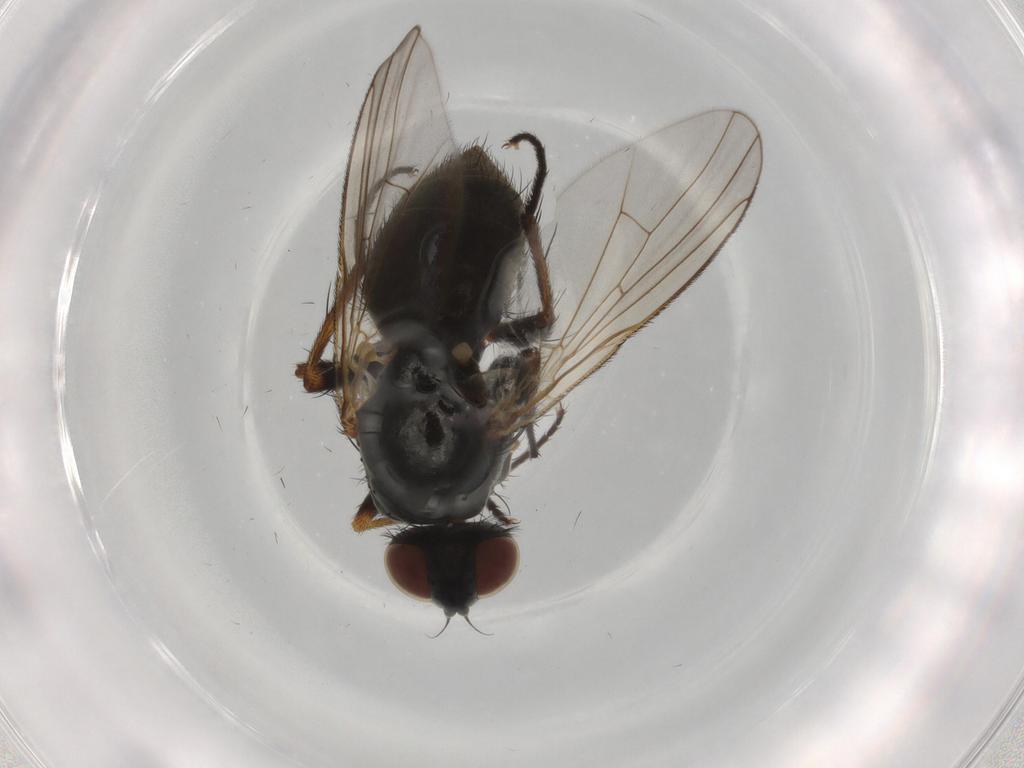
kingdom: Animalia
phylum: Arthropoda
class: Insecta
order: Diptera
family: Muscidae
